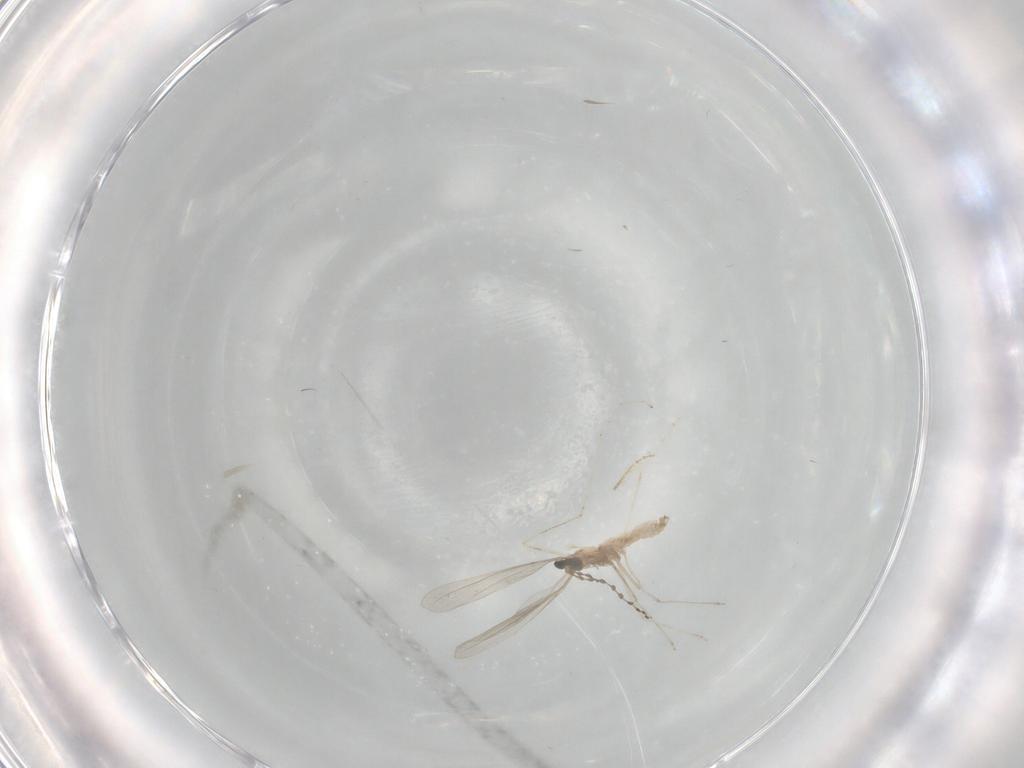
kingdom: Animalia
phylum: Arthropoda
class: Insecta
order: Diptera
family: Cecidomyiidae
